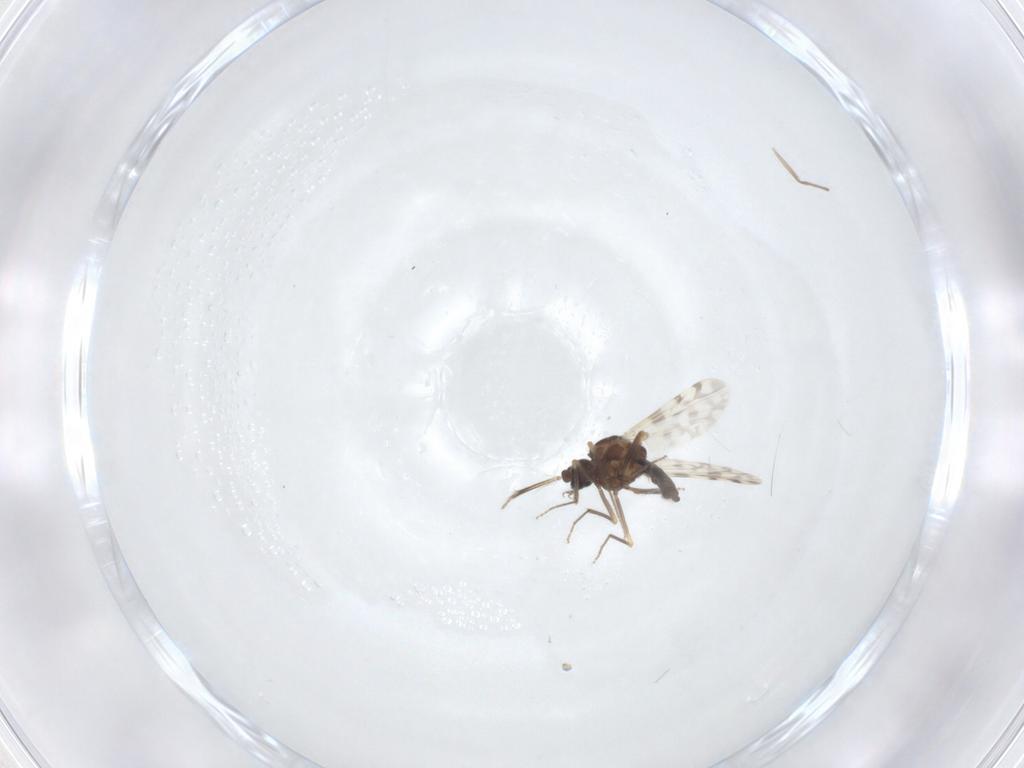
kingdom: Animalia
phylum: Arthropoda
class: Insecta
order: Diptera
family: Ceratopogonidae
